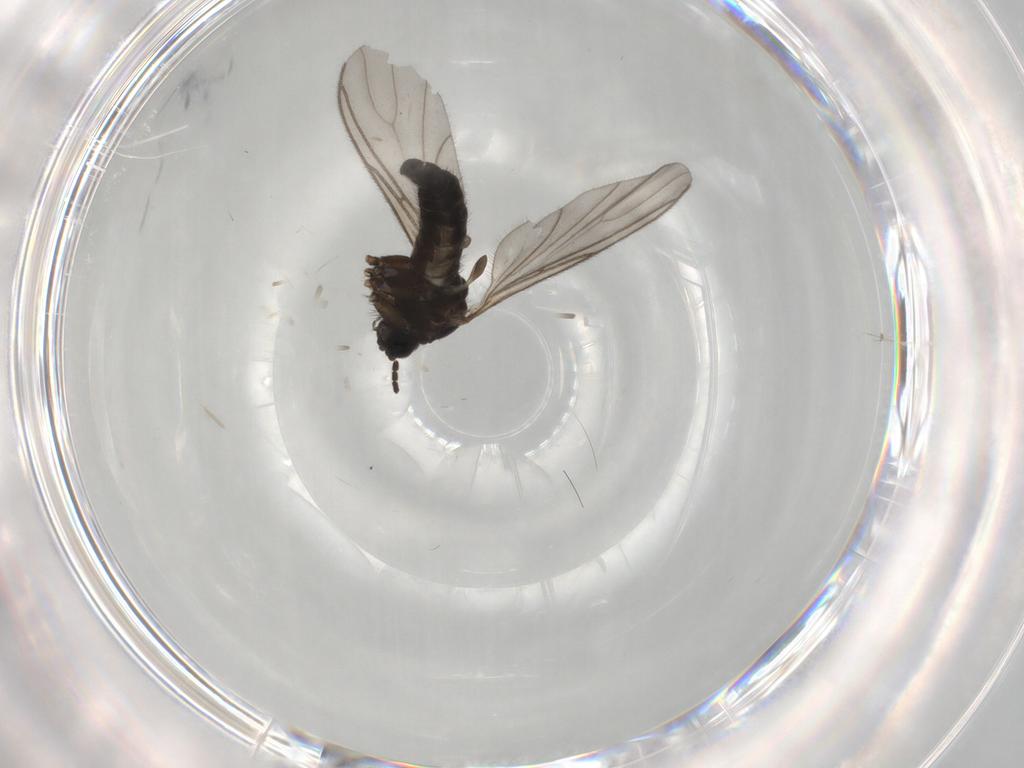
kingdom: Animalia
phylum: Arthropoda
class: Insecta
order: Diptera
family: Sciaridae
